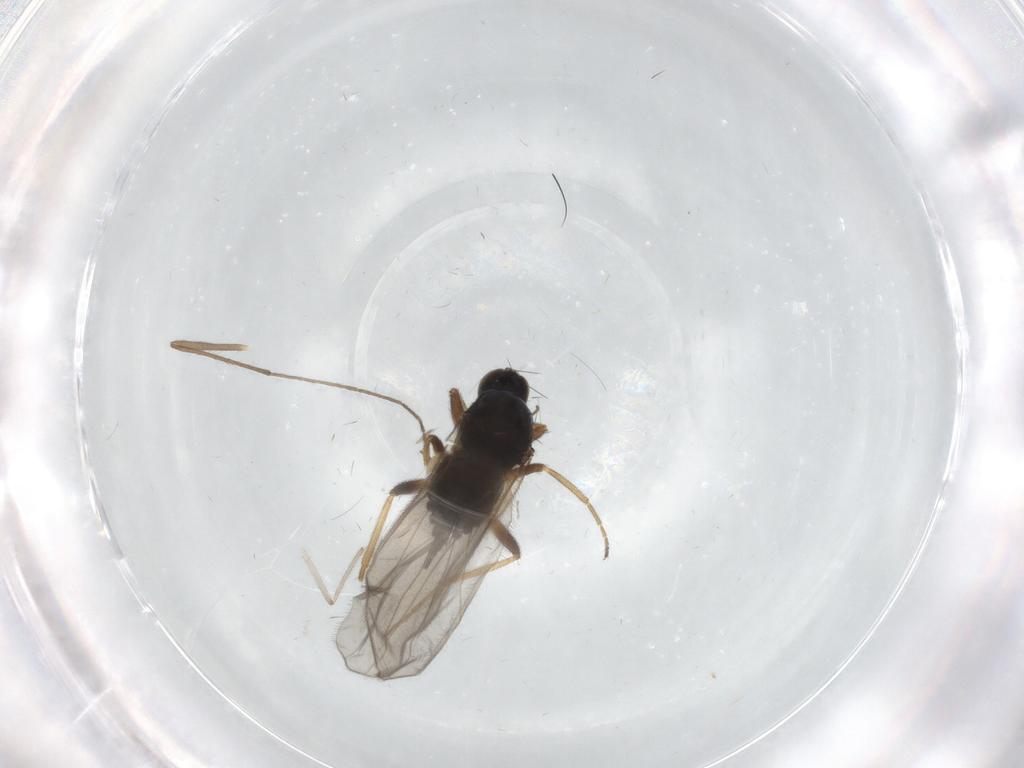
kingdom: Animalia
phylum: Arthropoda
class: Insecta
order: Diptera
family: Hybotidae
